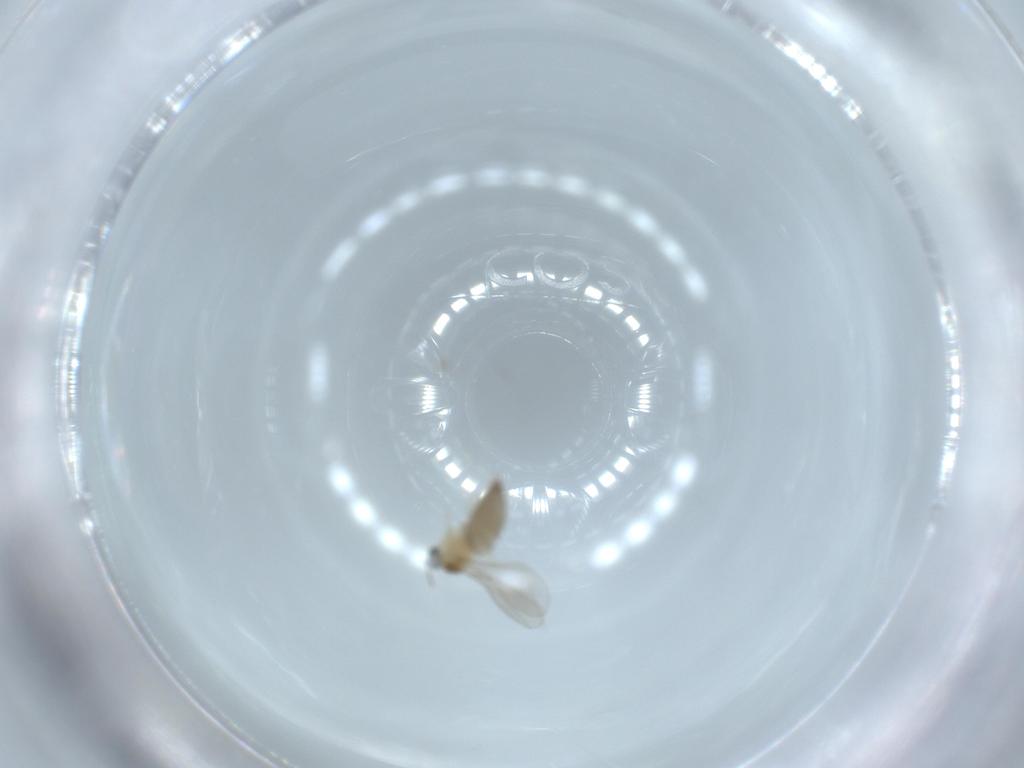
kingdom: Animalia
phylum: Arthropoda
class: Insecta
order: Diptera
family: Cecidomyiidae
